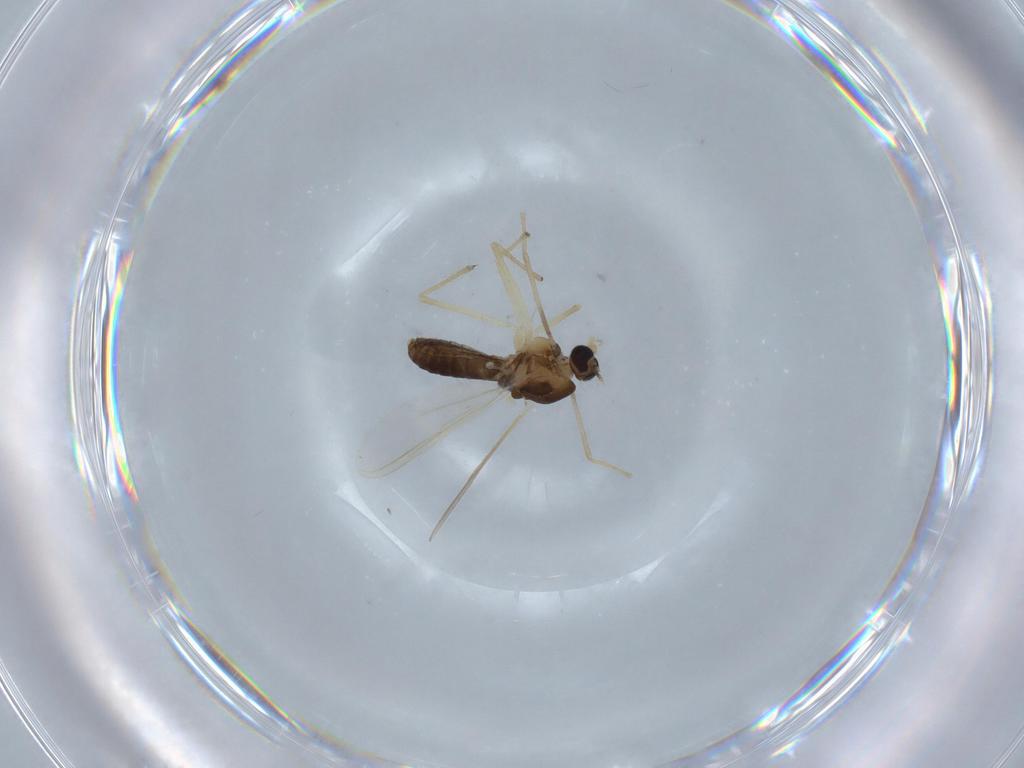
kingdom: Animalia
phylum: Arthropoda
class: Insecta
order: Diptera
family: Chironomidae
